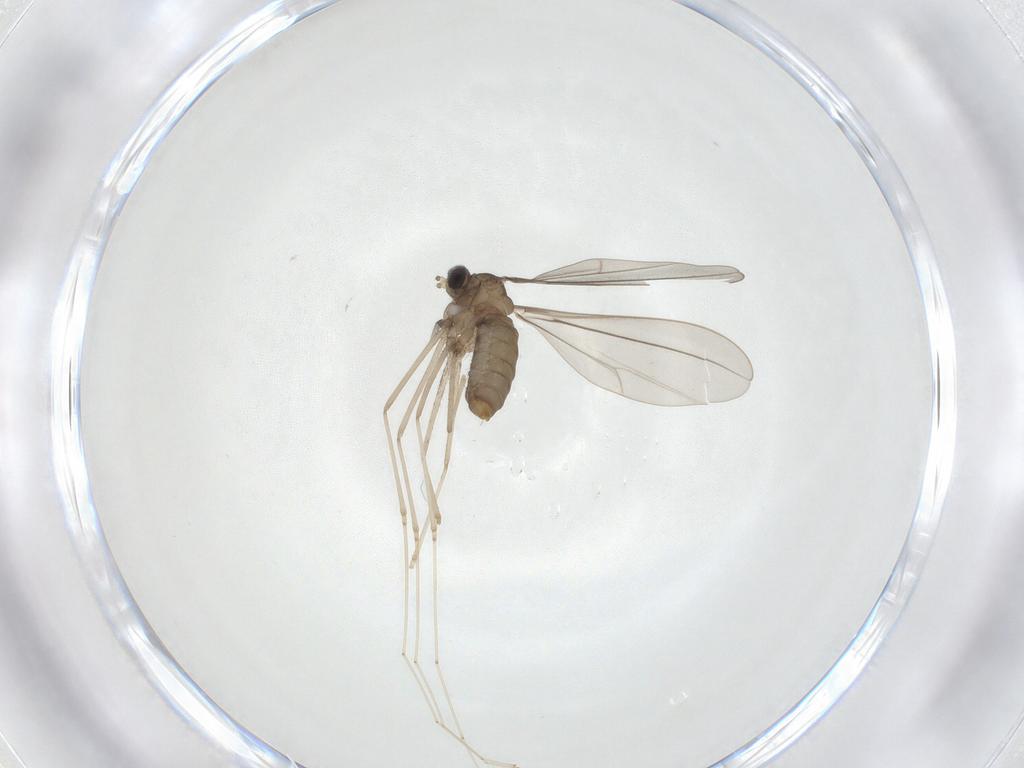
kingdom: Animalia
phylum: Arthropoda
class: Insecta
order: Diptera
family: Cecidomyiidae
